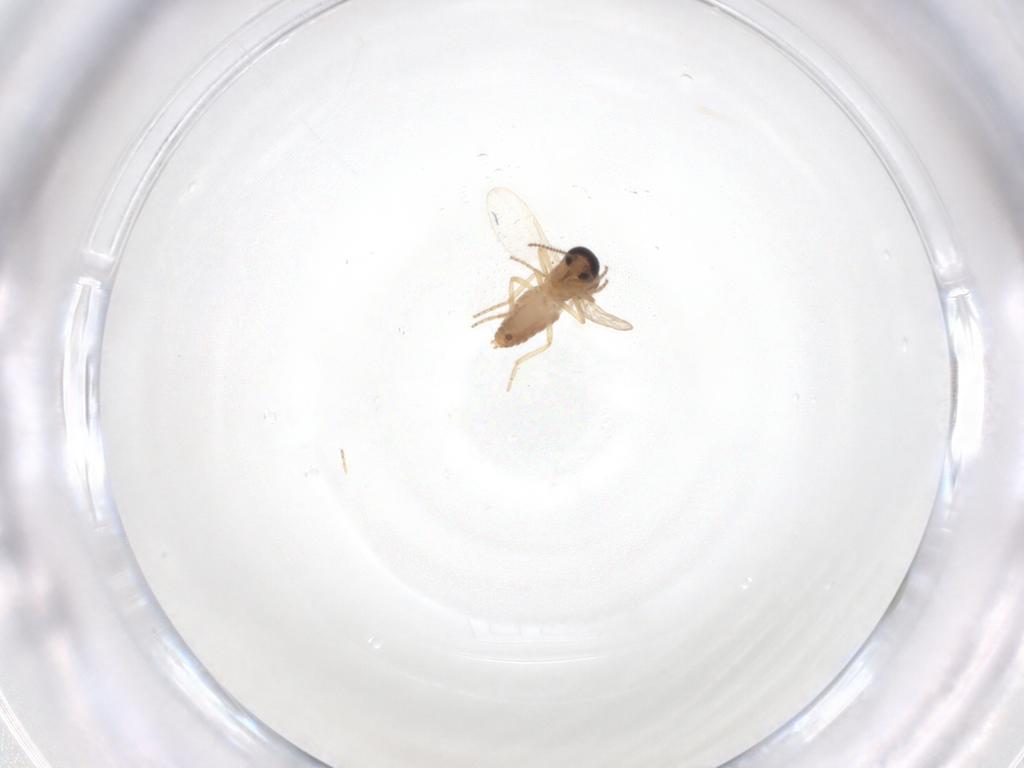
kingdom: Animalia
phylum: Arthropoda
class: Insecta
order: Diptera
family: Ceratopogonidae
